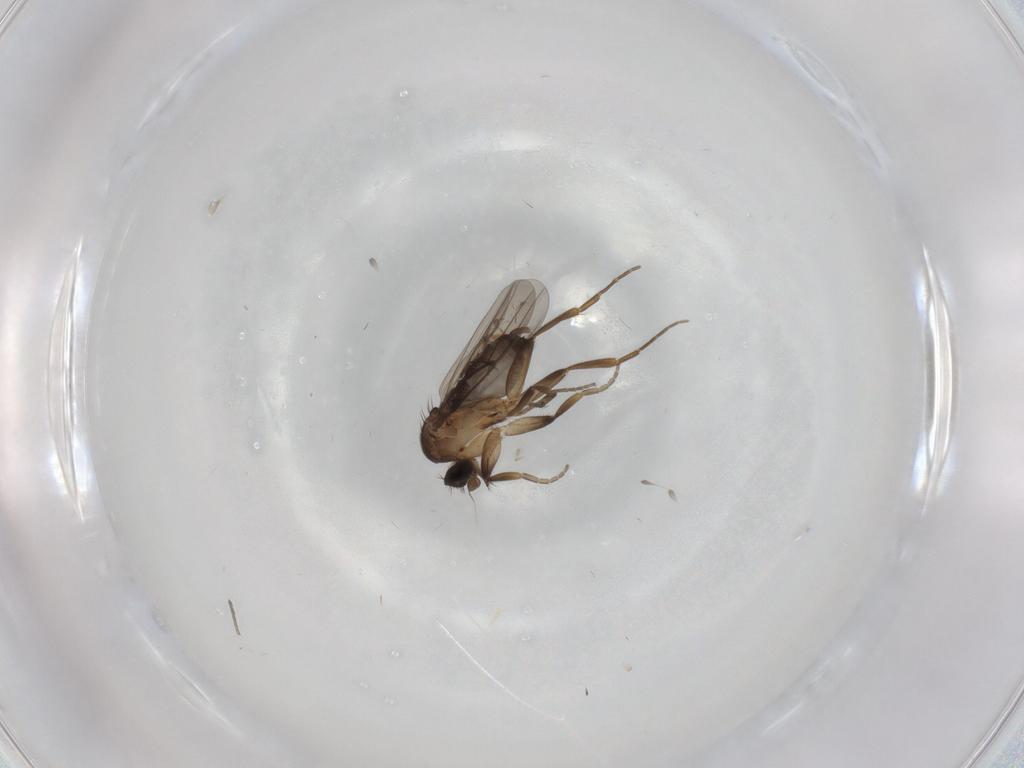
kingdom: Animalia
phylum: Arthropoda
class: Insecta
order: Diptera
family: Phoridae
